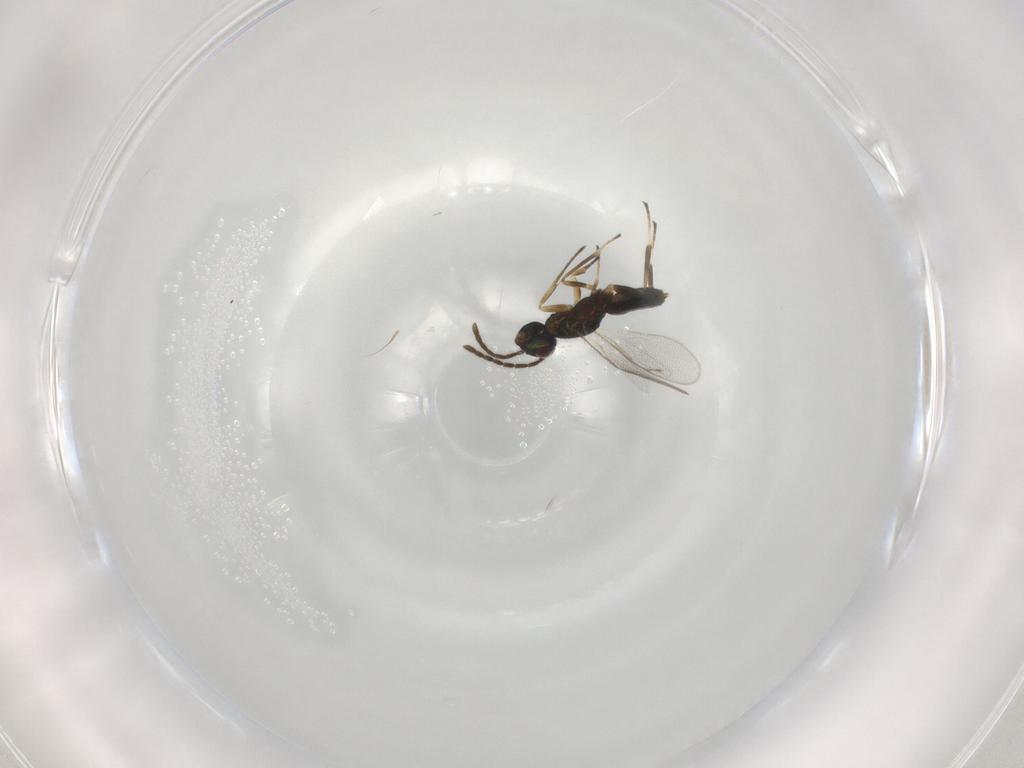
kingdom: Animalia
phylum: Arthropoda
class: Insecta
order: Hymenoptera
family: Eupelmidae
